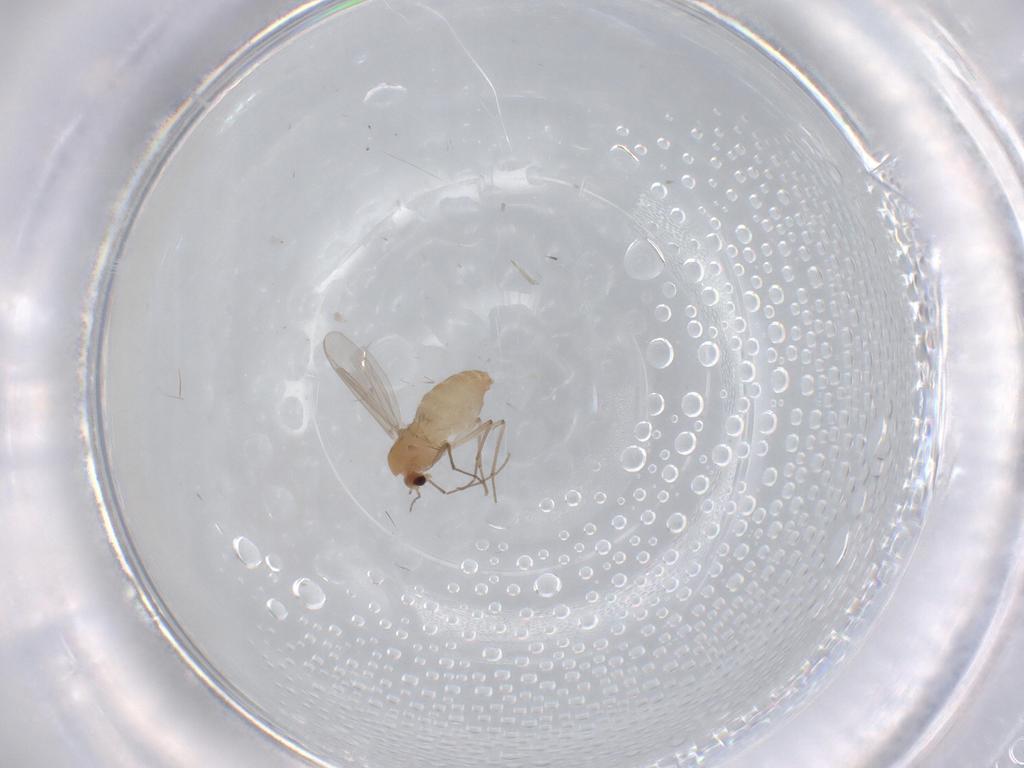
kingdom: Animalia
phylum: Arthropoda
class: Insecta
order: Diptera
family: Chironomidae
